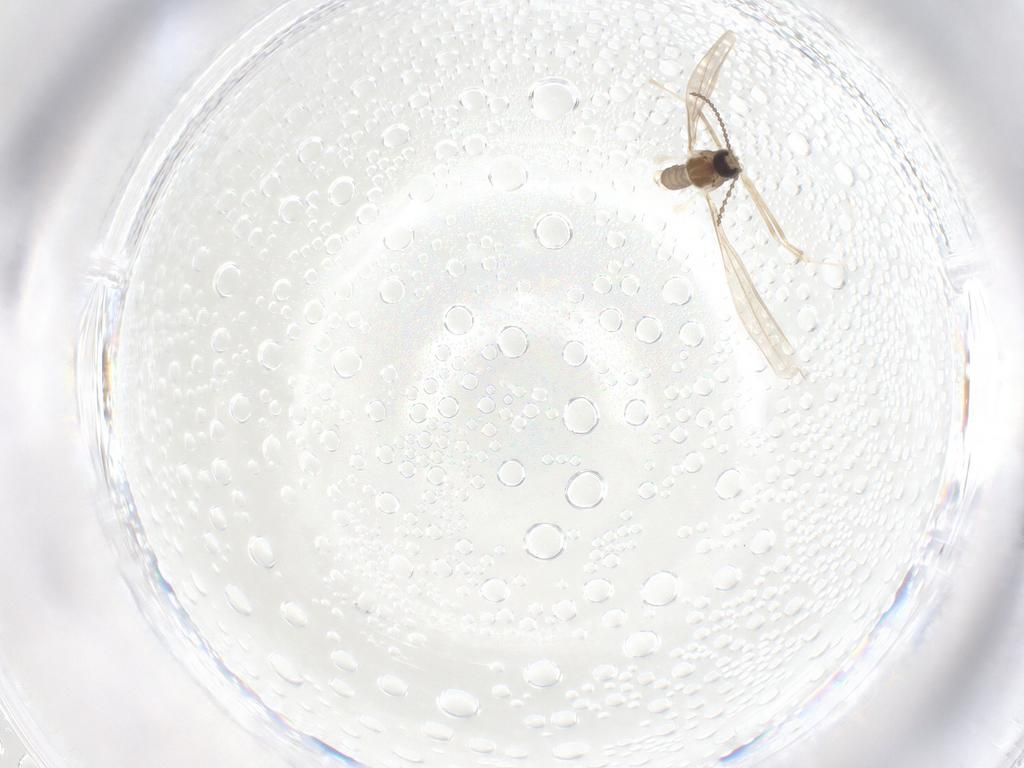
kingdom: Animalia
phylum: Arthropoda
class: Insecta
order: Diptera
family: Cecidomyiidae
